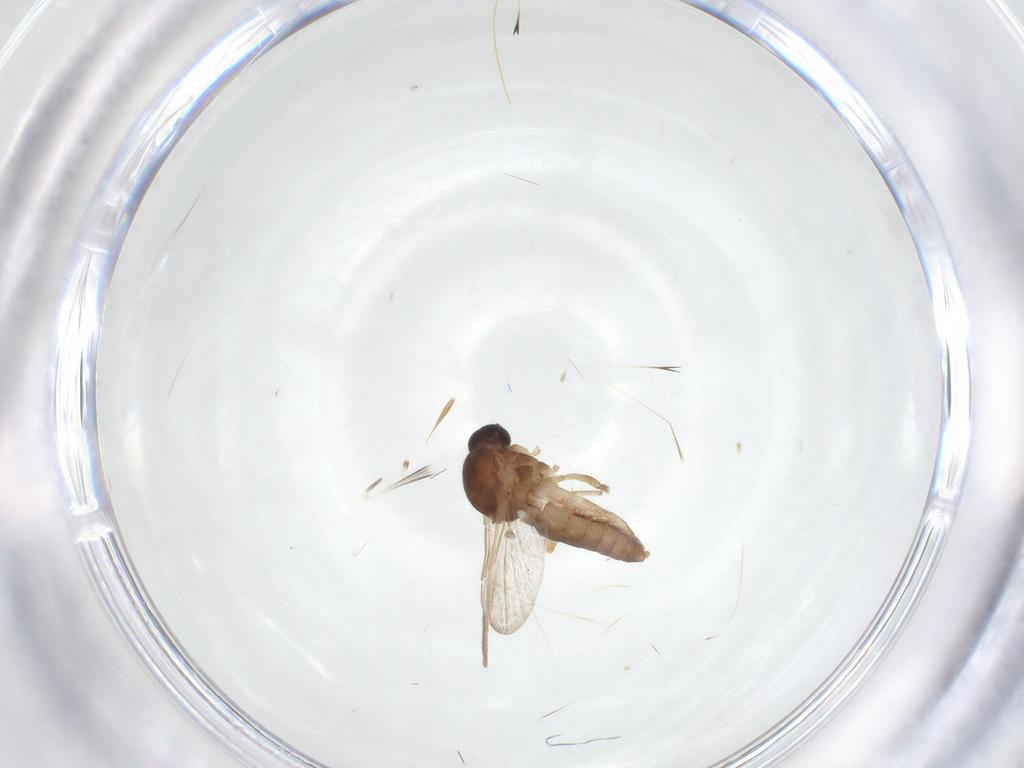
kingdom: Animalia
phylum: Arthropoda
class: Insecta
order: Diptera
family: Ceratopogonidae
